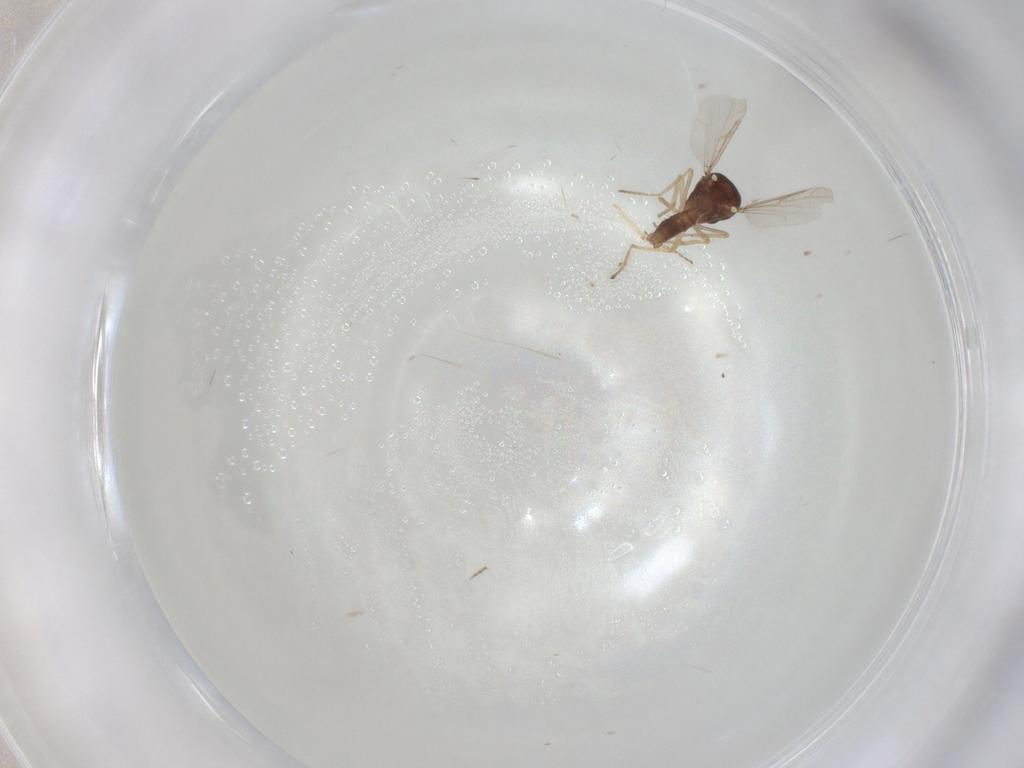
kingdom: Animalia
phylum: Arthropoda
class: Insecta
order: Diptera
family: Ceratopogonidae
